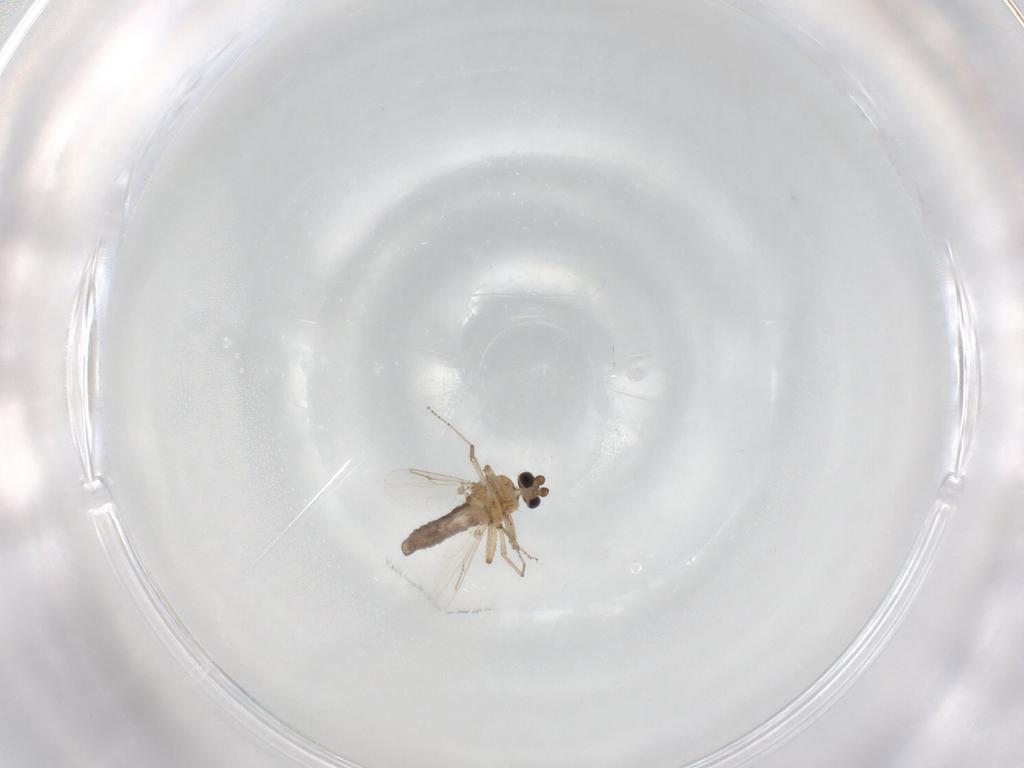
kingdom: Animalia
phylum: Arthropoda
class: Insecta
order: Diptera
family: Ceratopogonidae
